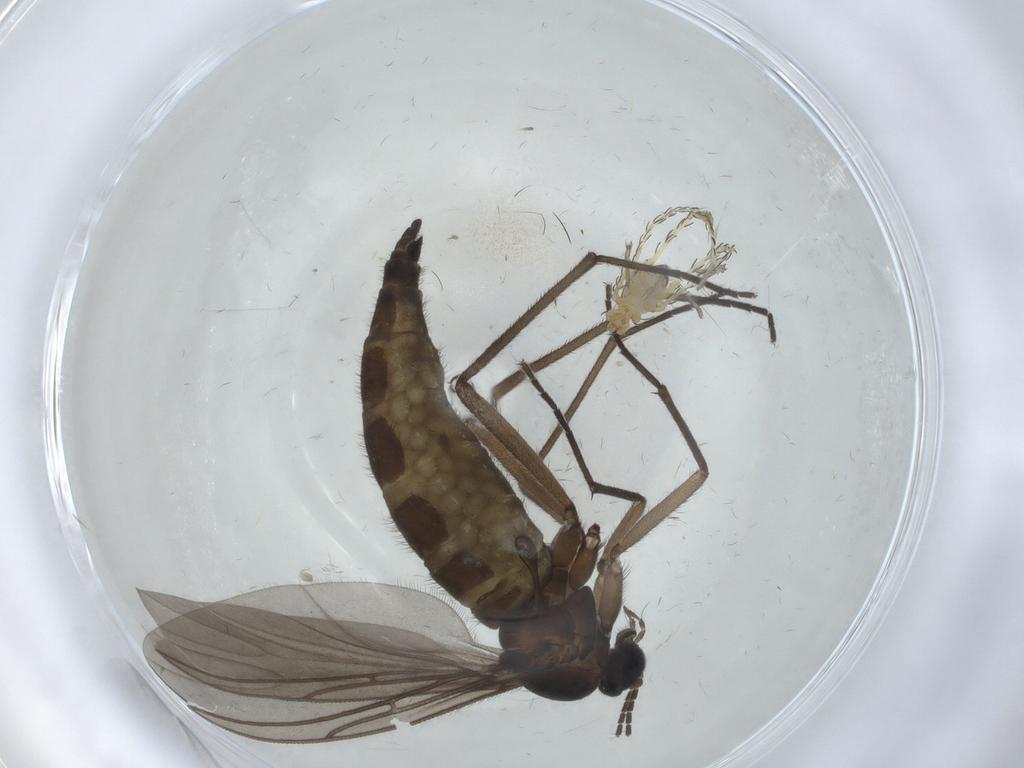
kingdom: Animalia
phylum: Arthropoda
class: Insecta
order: Diptera
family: Sciaridae
